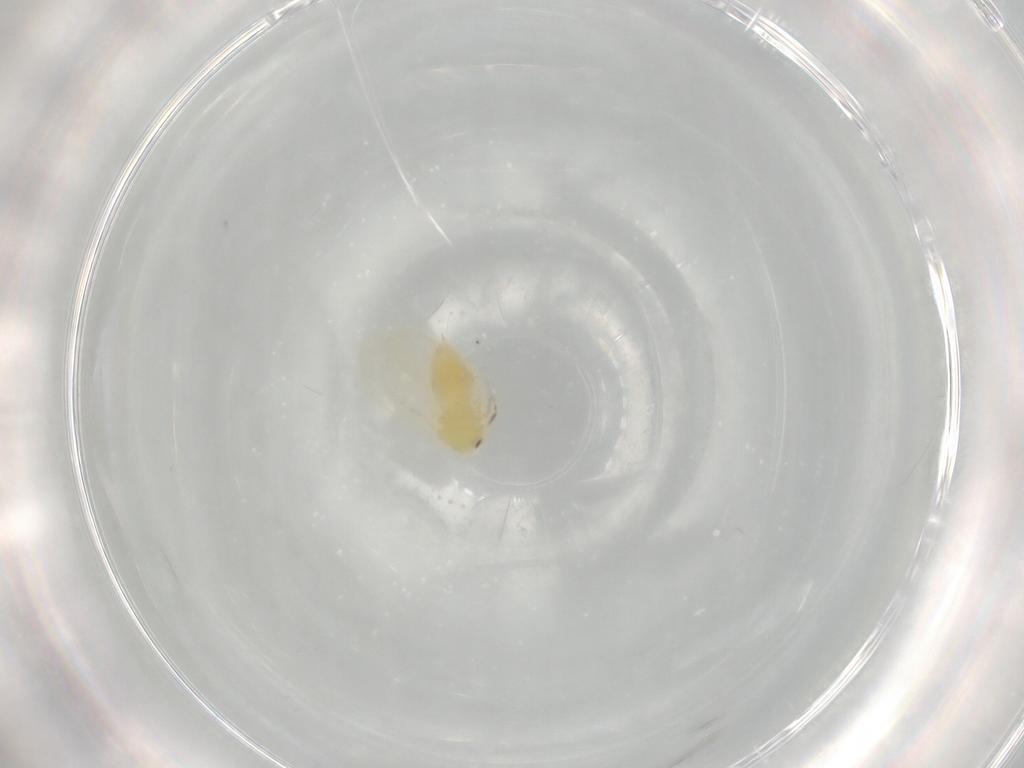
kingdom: Animalia
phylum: Arthropoda
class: Insecta
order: Hemiptera
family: Aleyrodidae
